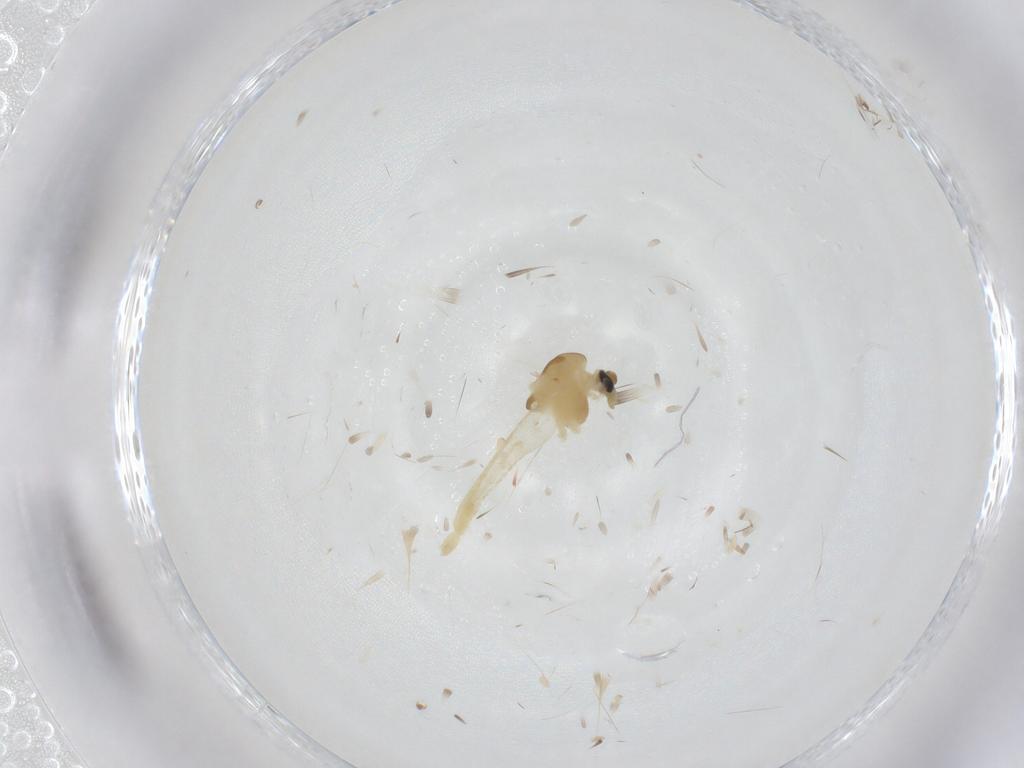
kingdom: Animalia
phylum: Arthropoda
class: Insecta
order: Diptera
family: Chironomidae
